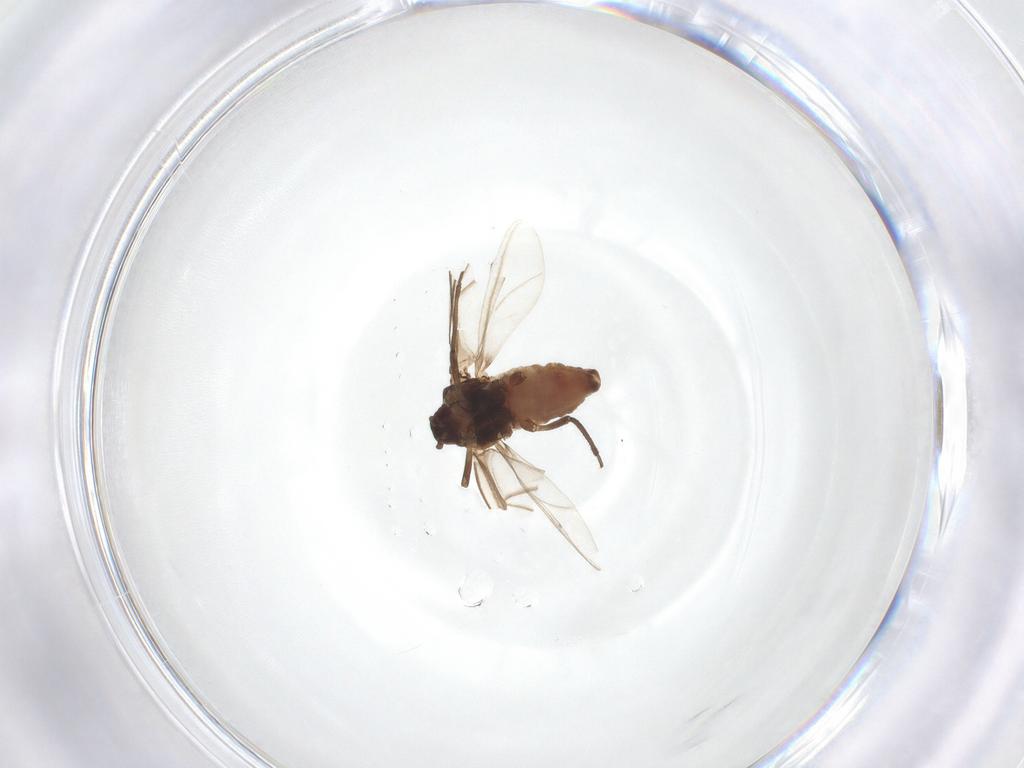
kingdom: Animalia
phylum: Arthropoda
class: Insecta
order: Hemiptera
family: Aphididae
